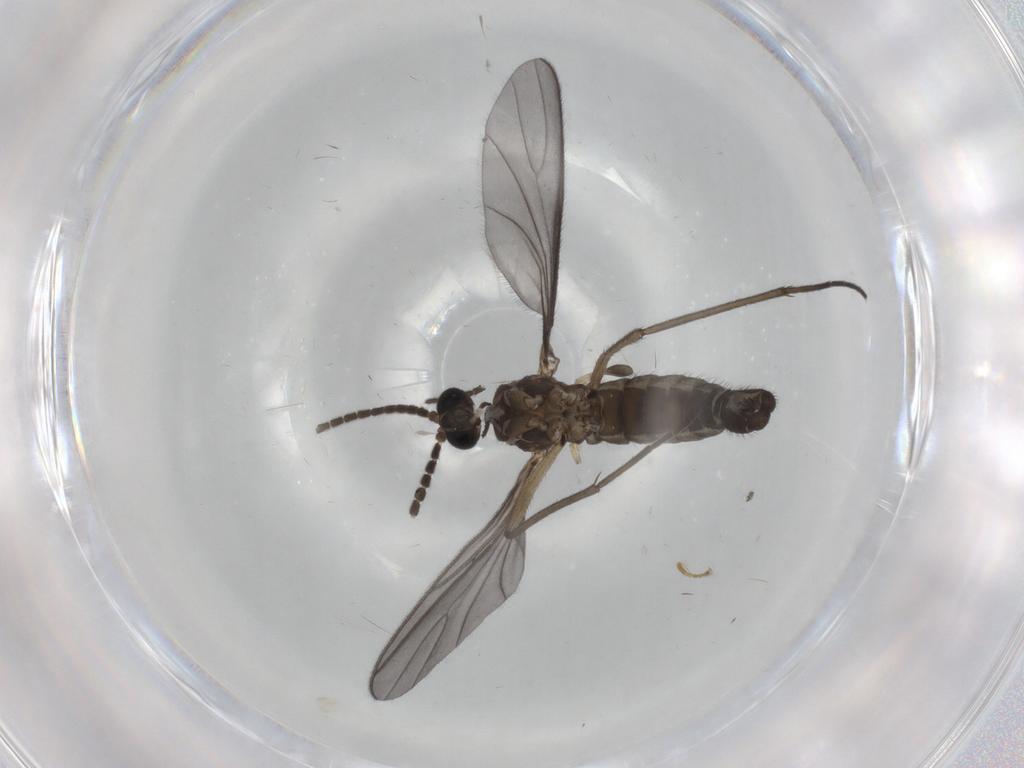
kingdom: Animalia
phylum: Arthropoda
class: Insecta
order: Diptera
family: Sciaridae
